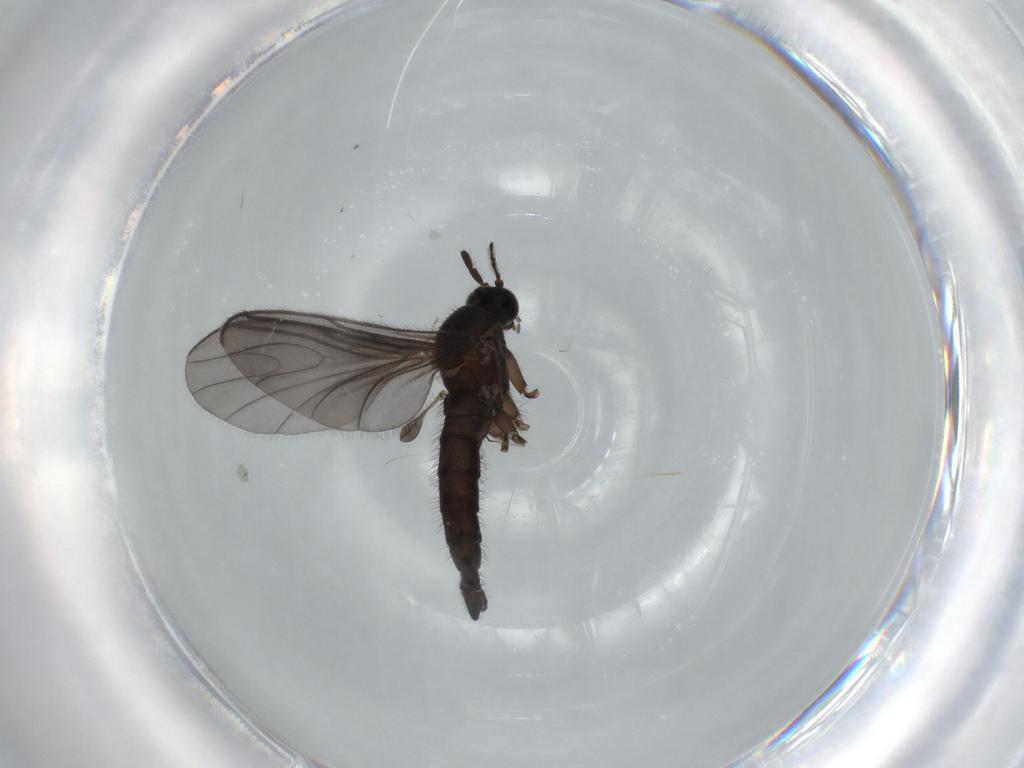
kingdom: Animalia
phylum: Arthropoda
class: Insecta
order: Diptera
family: Sciaridae
